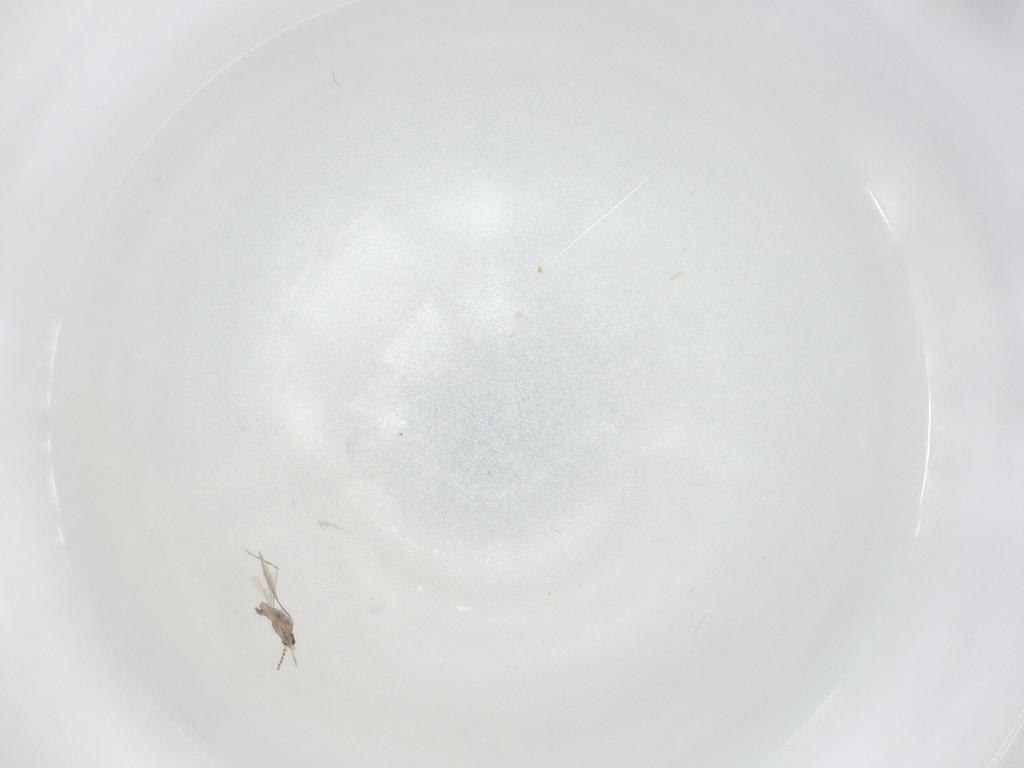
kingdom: Animalia
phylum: Arthropoda
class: Insecta
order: Diptera
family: Cecidomyiidae
